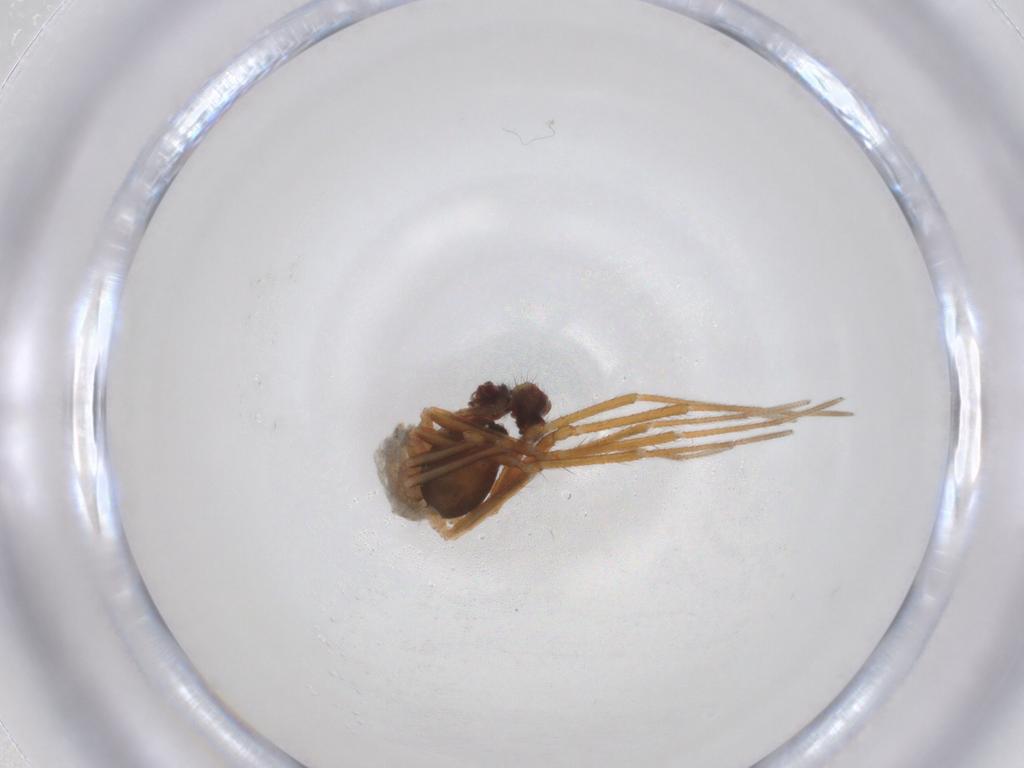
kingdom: Animalia
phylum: Arthropoda
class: Arachnida
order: Araneae
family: Linyphiidae
